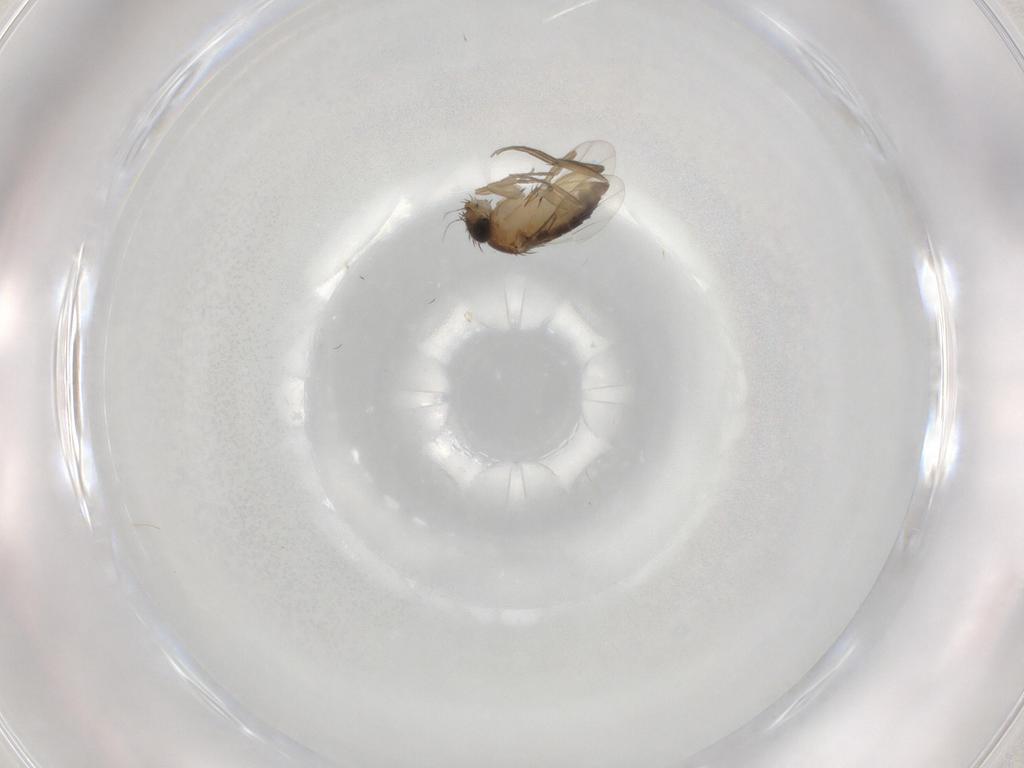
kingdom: Animalia
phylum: Arthropoda
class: Insecta
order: Diptera
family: Phoridae
